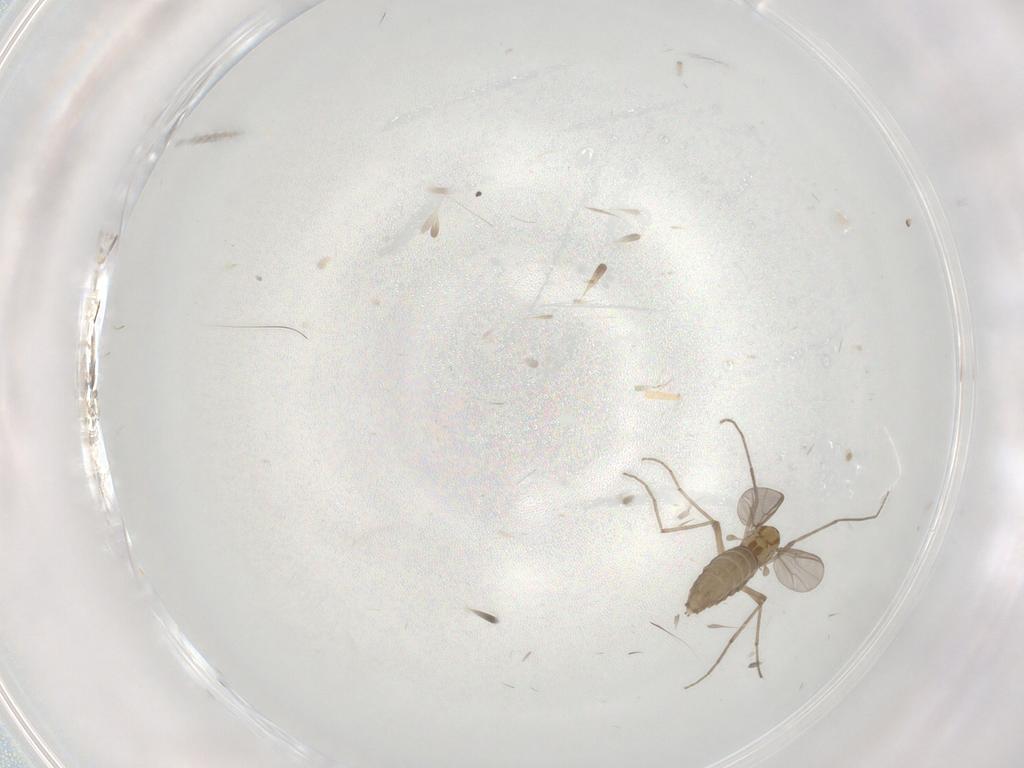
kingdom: Animalia
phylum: Arthropoda
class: Insecta
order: Diptera
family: Chironomidae
